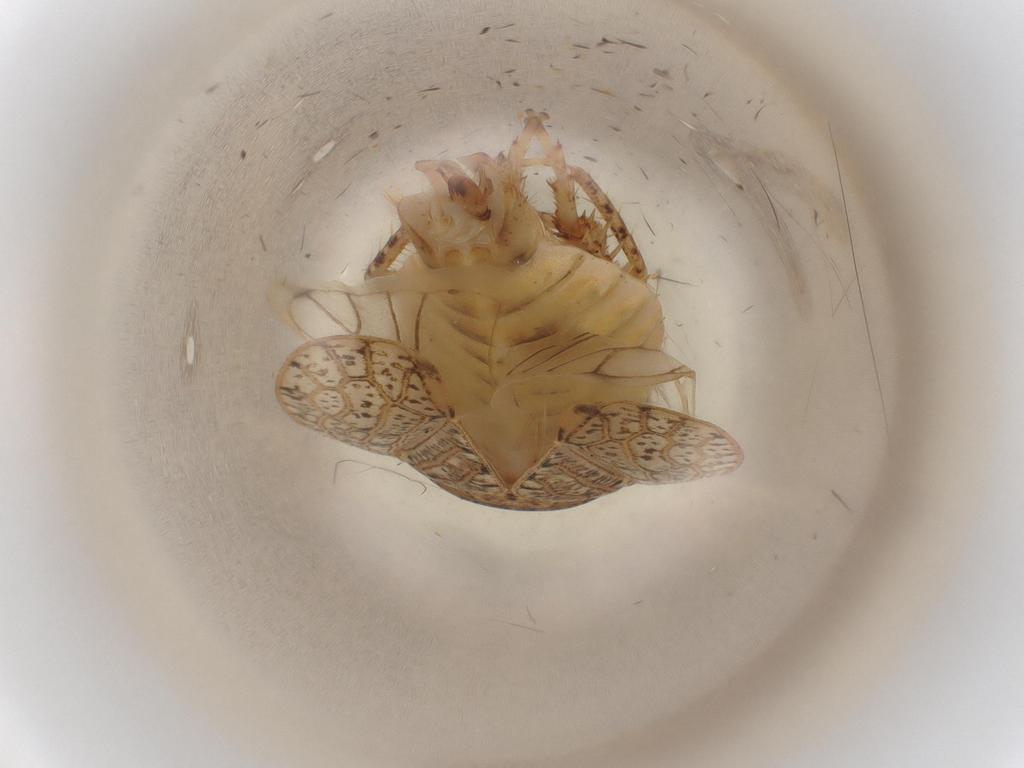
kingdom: Animalia
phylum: Arthropoda
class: Insecta
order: Hemiptera
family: Cicadellidae
